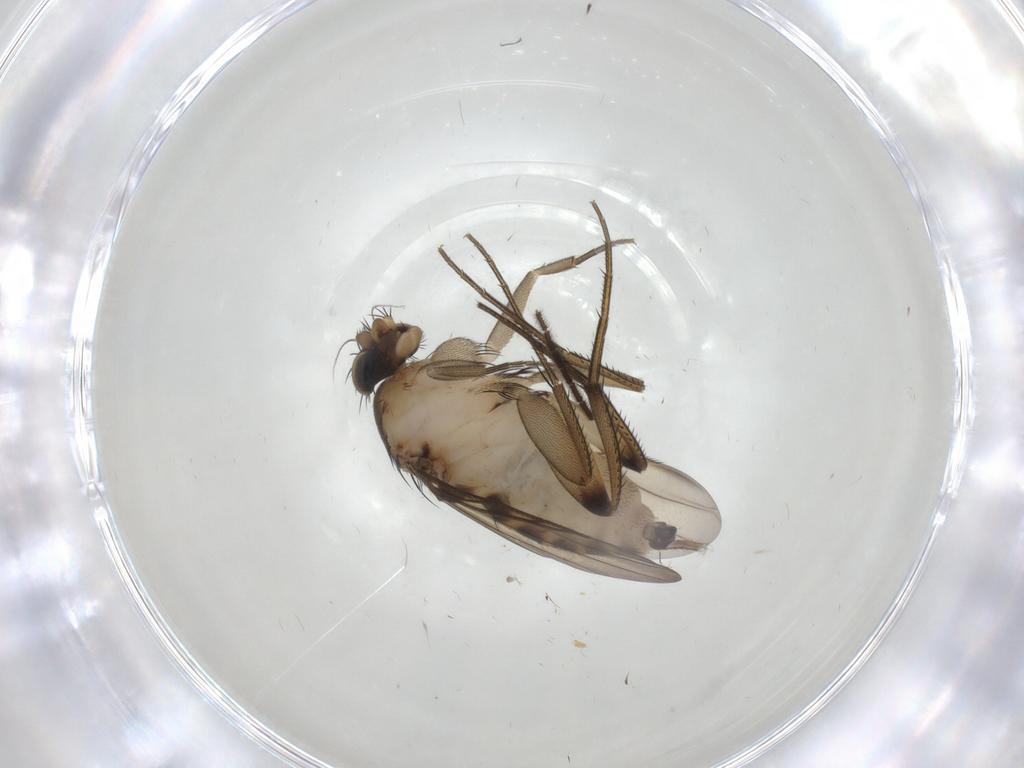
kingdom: Animalia
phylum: Arthropoda
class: Insecta
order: Diptera
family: Phoridae
